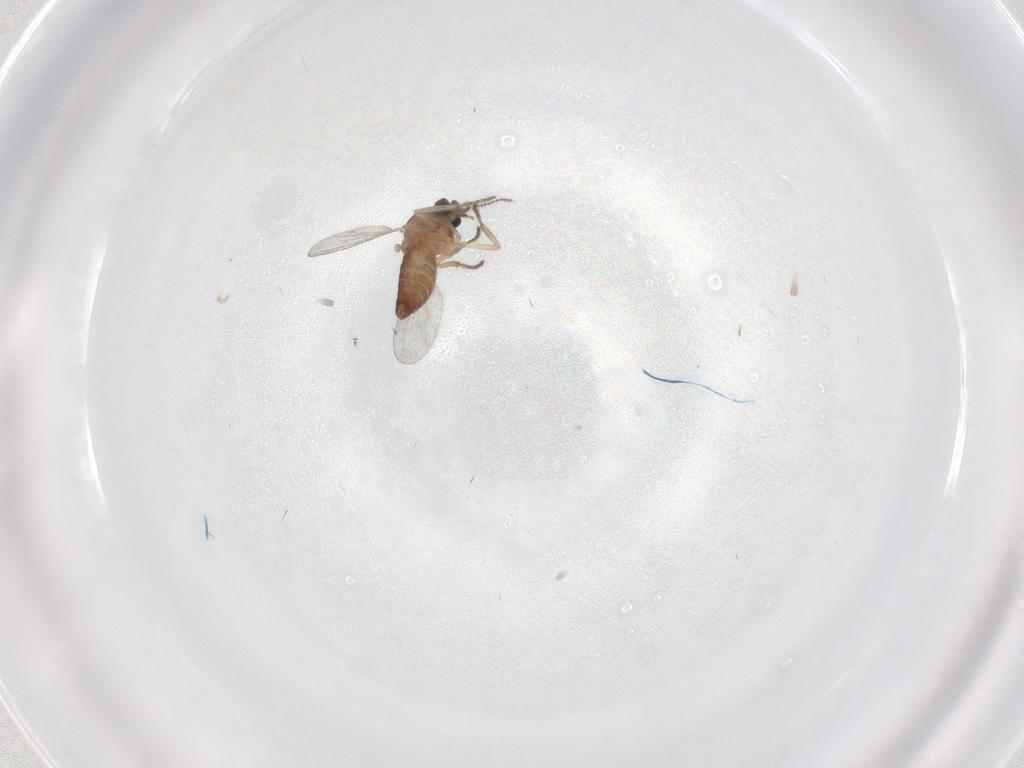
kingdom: Animalia
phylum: Arthropoda
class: Insecta
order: Diptera
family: Ceratopogonidae
